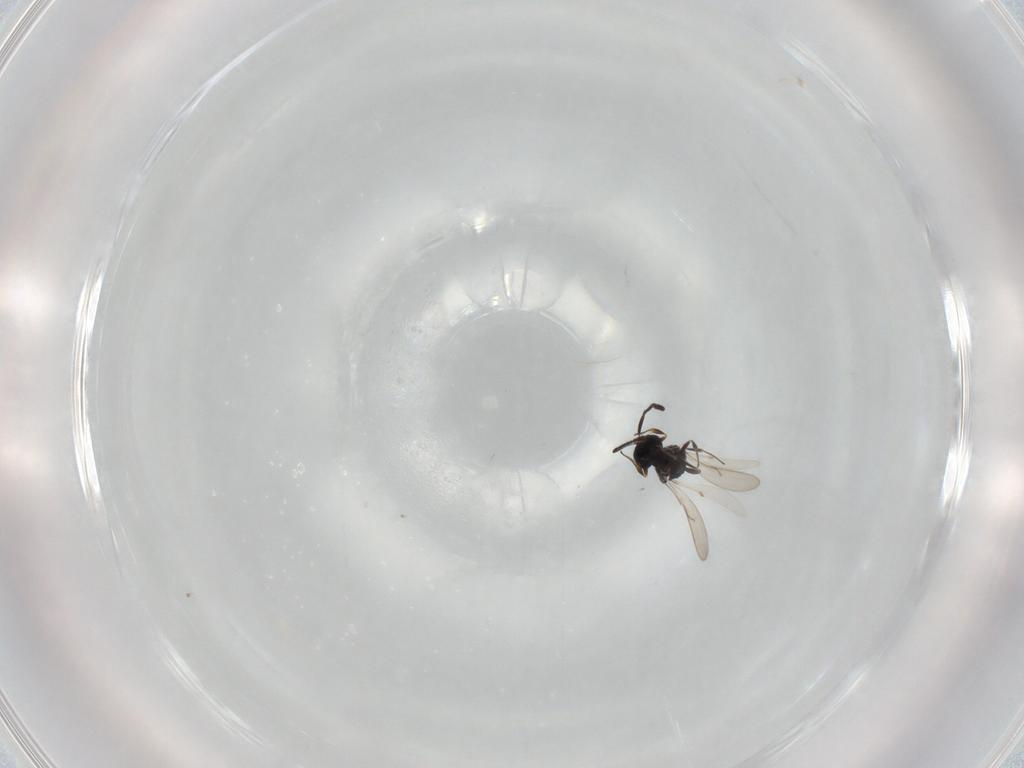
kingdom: Animalia
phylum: Arthropoda
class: Insecta
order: Hymenoptera
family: Scelionidae
